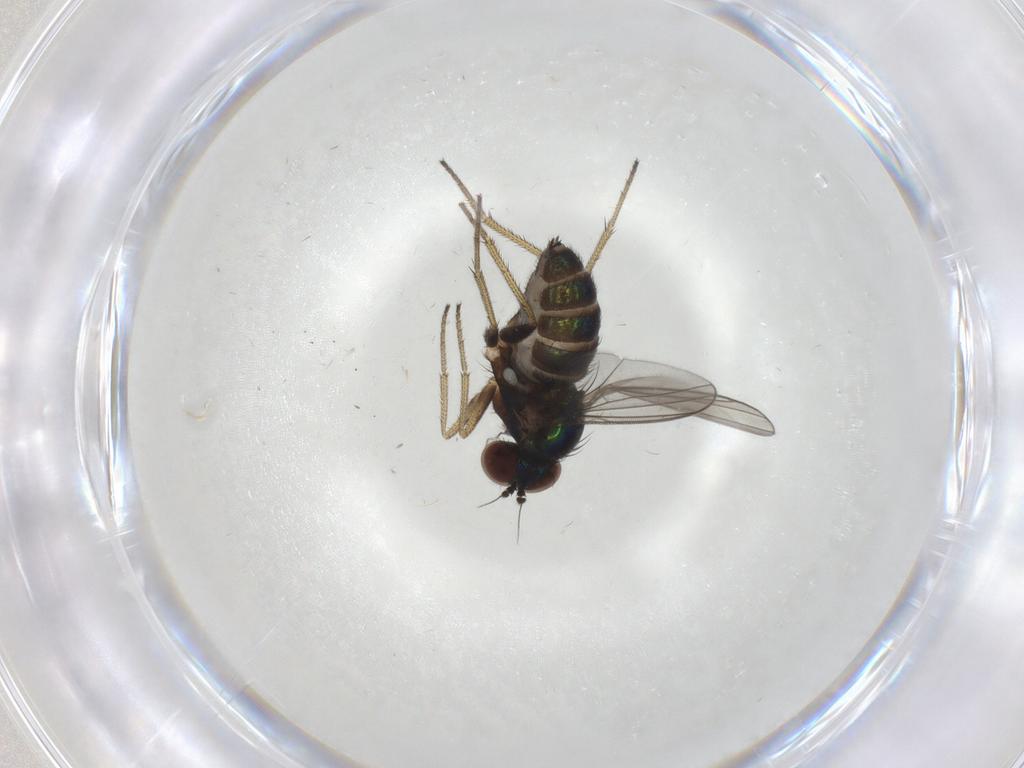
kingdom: Animalia
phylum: Arthropoda
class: Insecta
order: Diptera
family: Dolichopodidae
